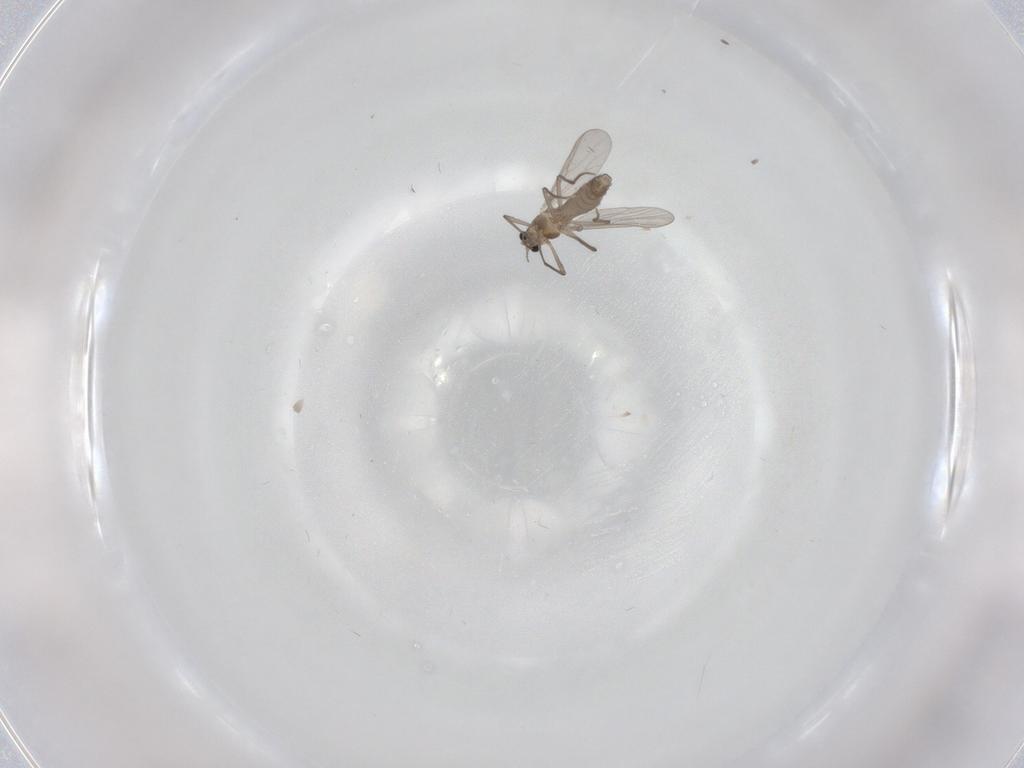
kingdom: Animalia
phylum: Arthropoda
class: Insecta
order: Diptera
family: Chironomidae
